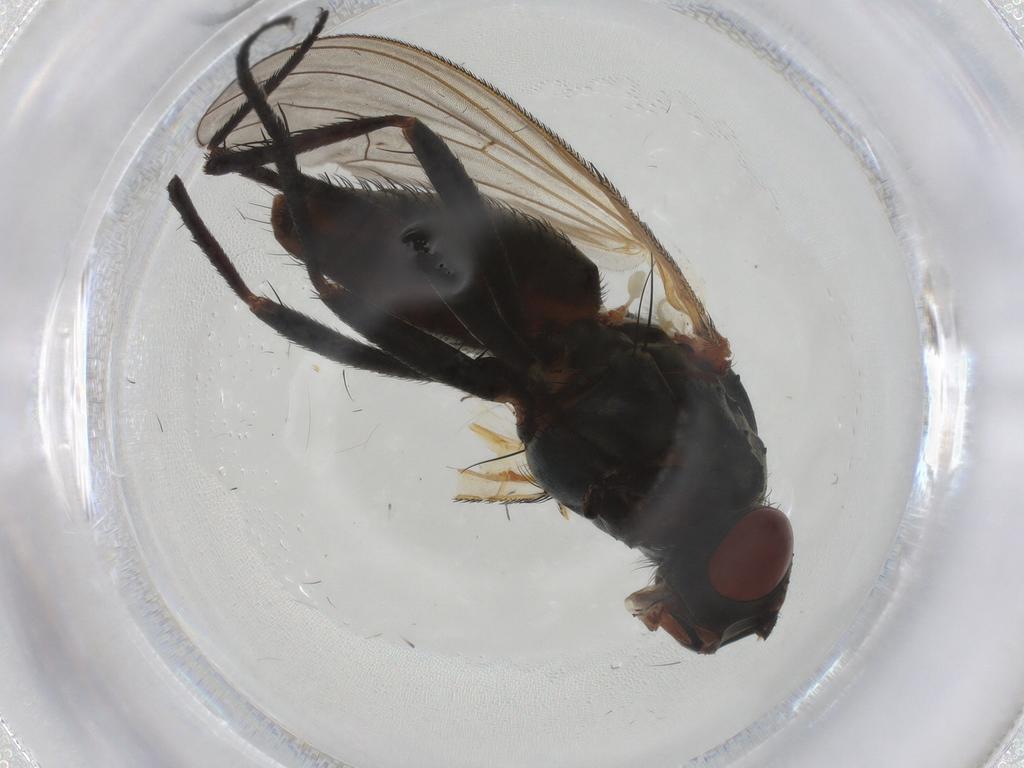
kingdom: Animalia
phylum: Arthropoda
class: Insecta
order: Diptera
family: Anthomyiidae
